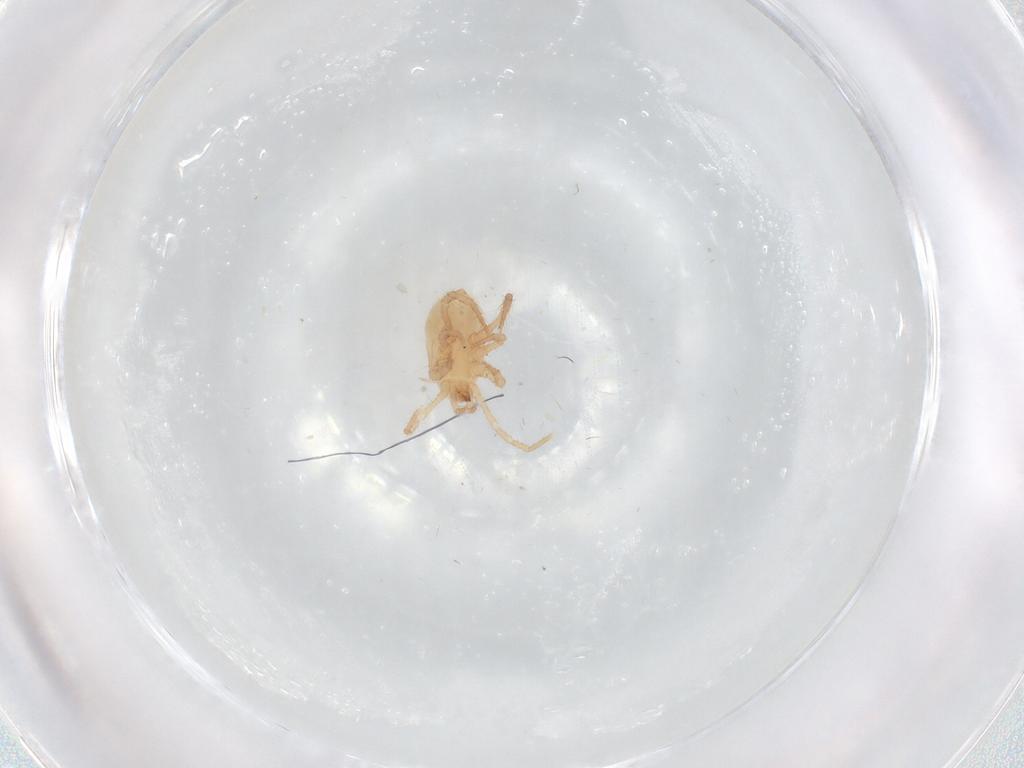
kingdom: Animalia
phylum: Arthropoda
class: Arachnida
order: Mesostigmata
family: Parasitidae
